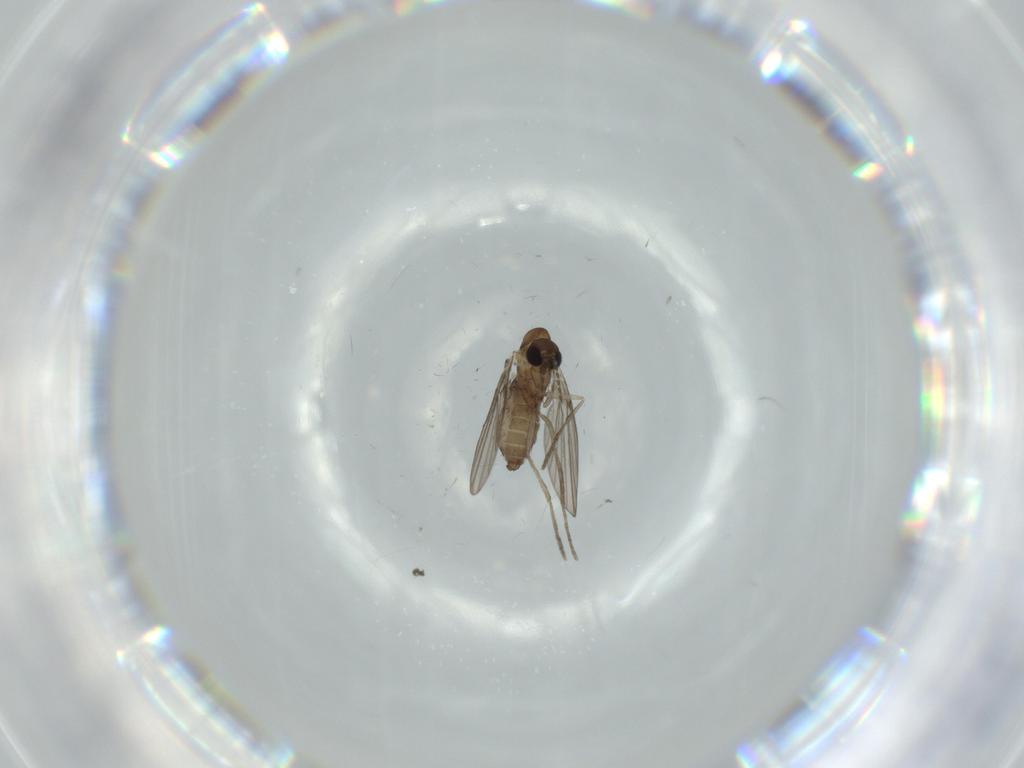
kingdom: Animalia
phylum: Arthropoda
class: Insecta
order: Diptera
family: Psychodidae
